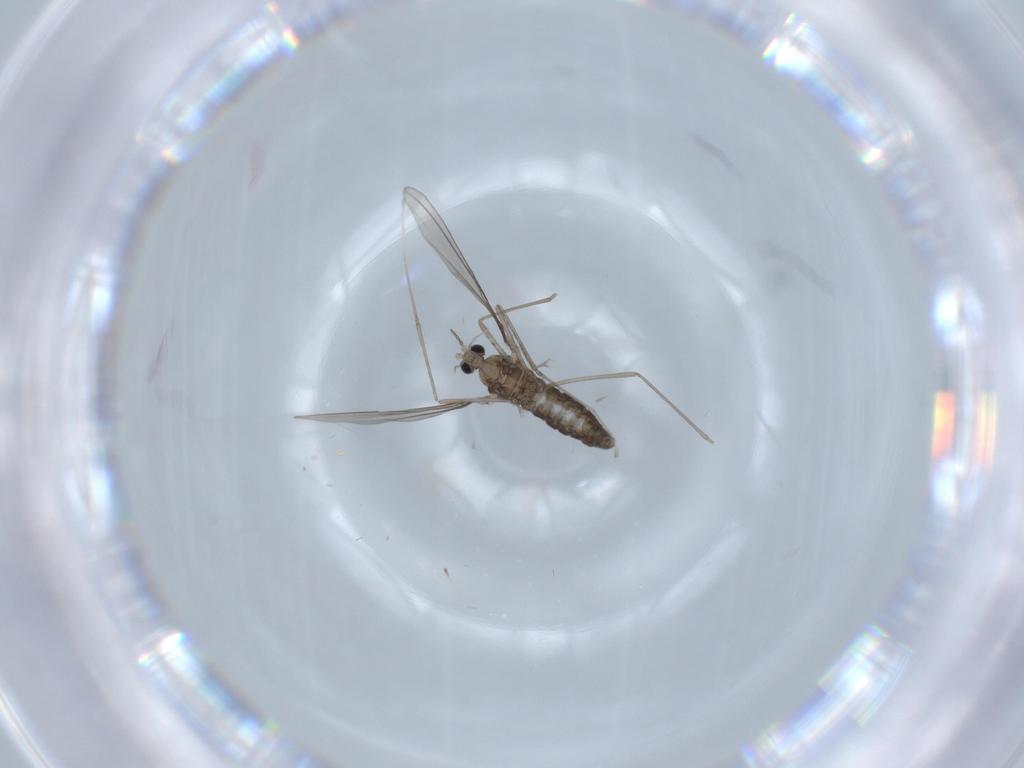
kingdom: Animalia
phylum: Arthropoda
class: Insecta
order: Diptera
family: Cecidomyiidae
